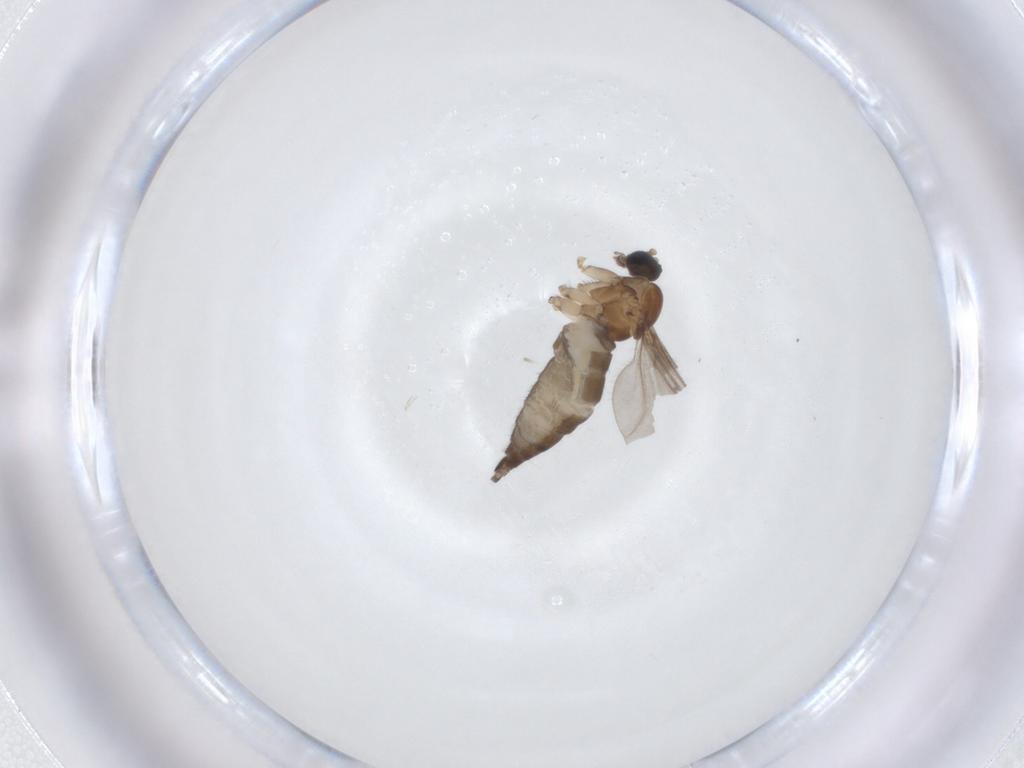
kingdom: Animalia
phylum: Arthropoda
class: Insecta
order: Diptera
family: Sciaridae
